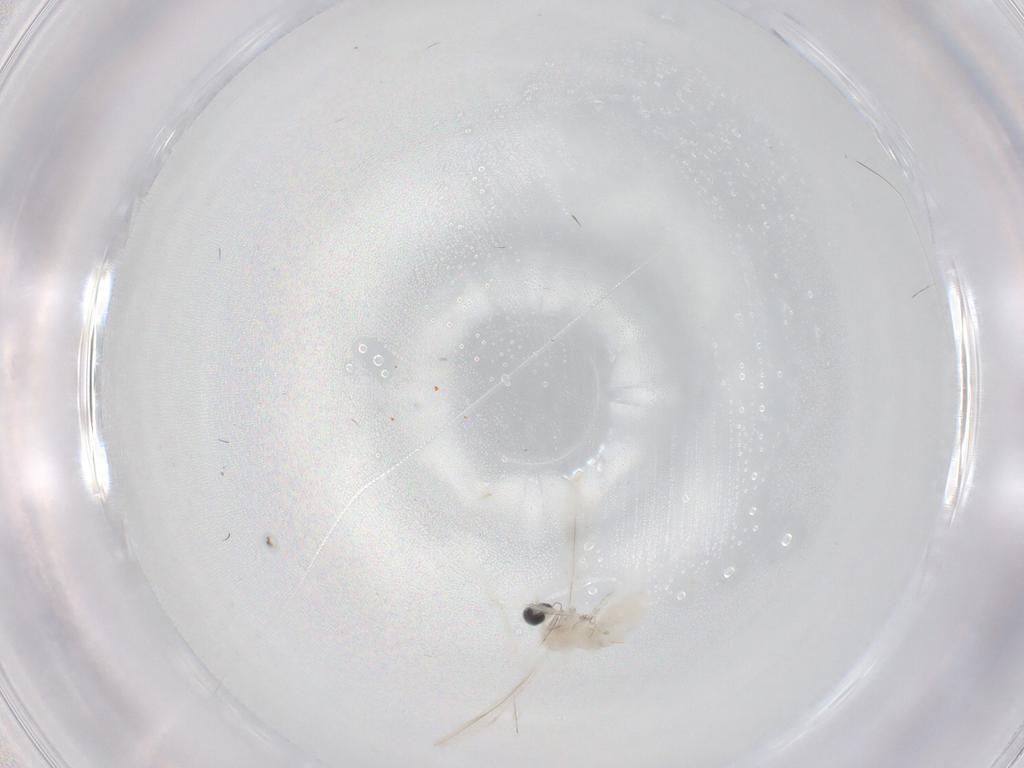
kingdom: Animalia
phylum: Arthropoda
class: Insecta
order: Diptera
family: Cecidomyiidae
